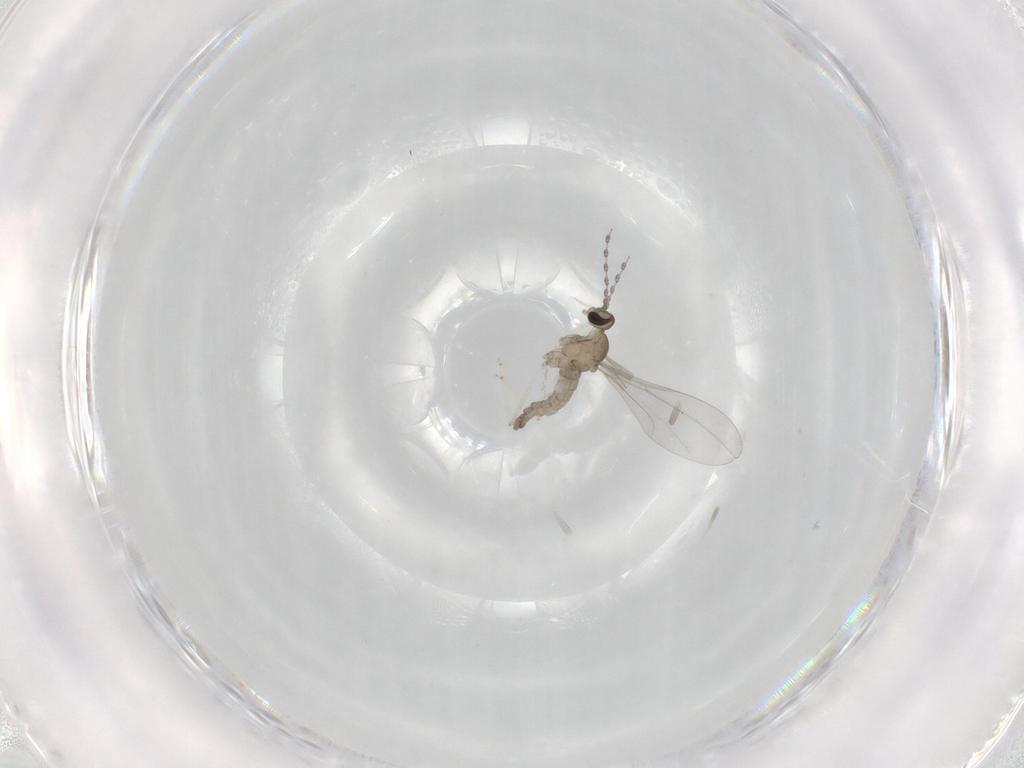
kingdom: Animalia
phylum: Arthropoda
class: Insecta
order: Diptera
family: Cecidomyiidae
